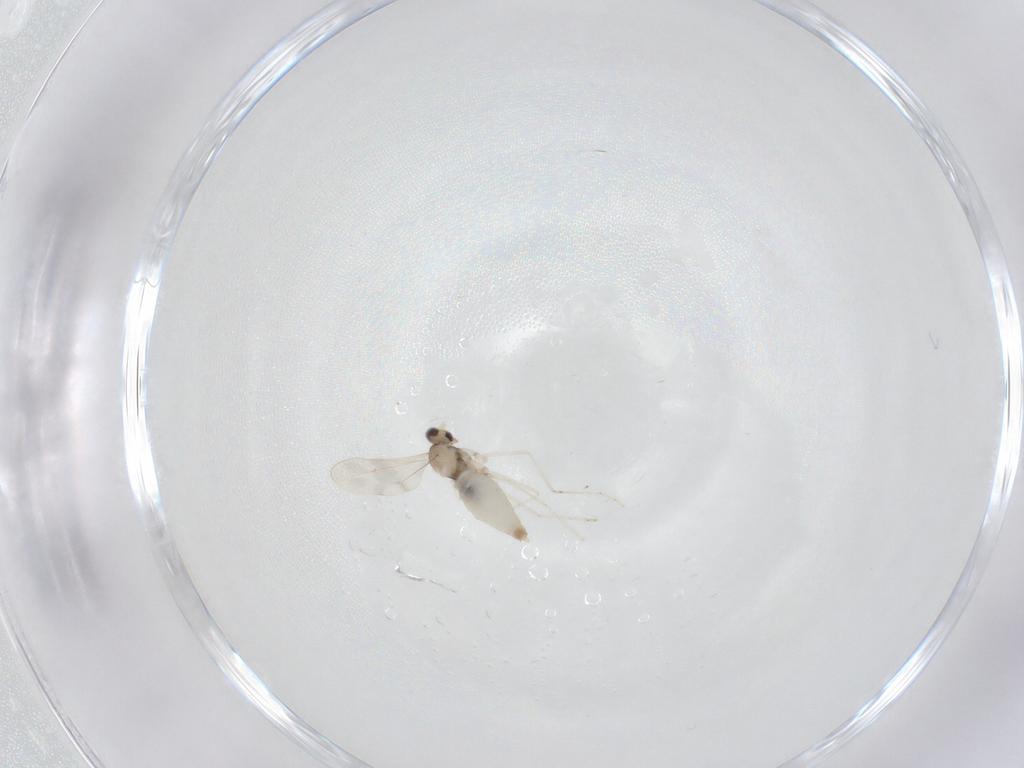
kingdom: Animalia
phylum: Arthropoda
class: Insecta
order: Diptera
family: Cecidomyiidae
